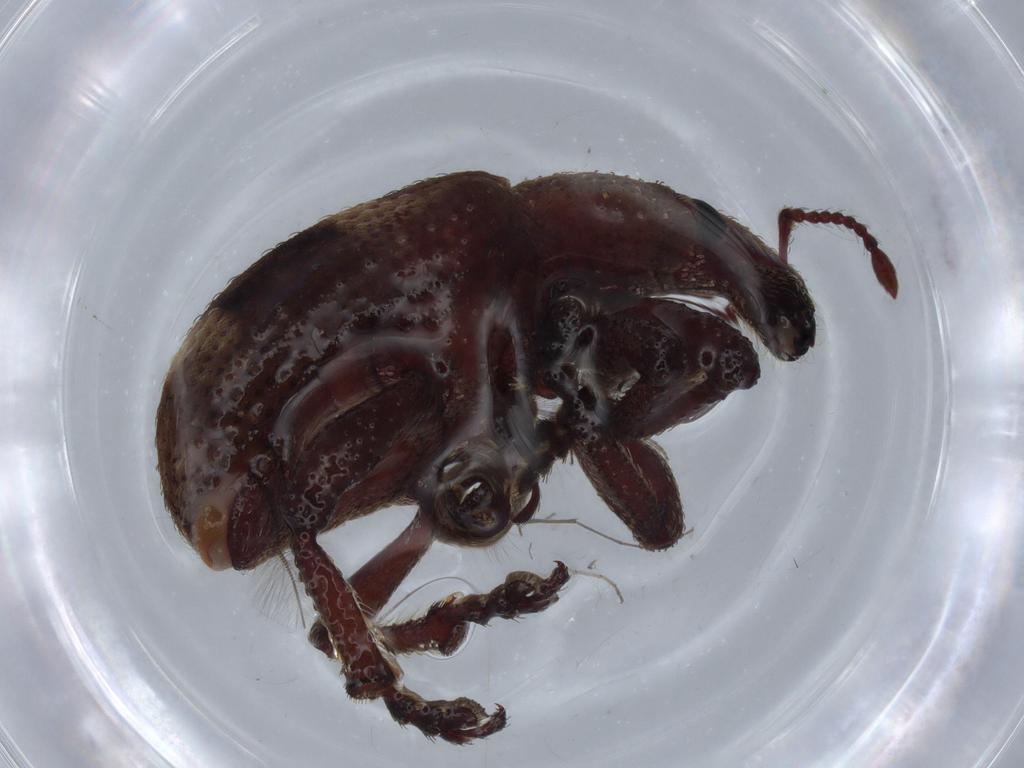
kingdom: Animalia
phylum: Arthropoda
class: Insecta
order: Coleoptera
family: Curculionidae
